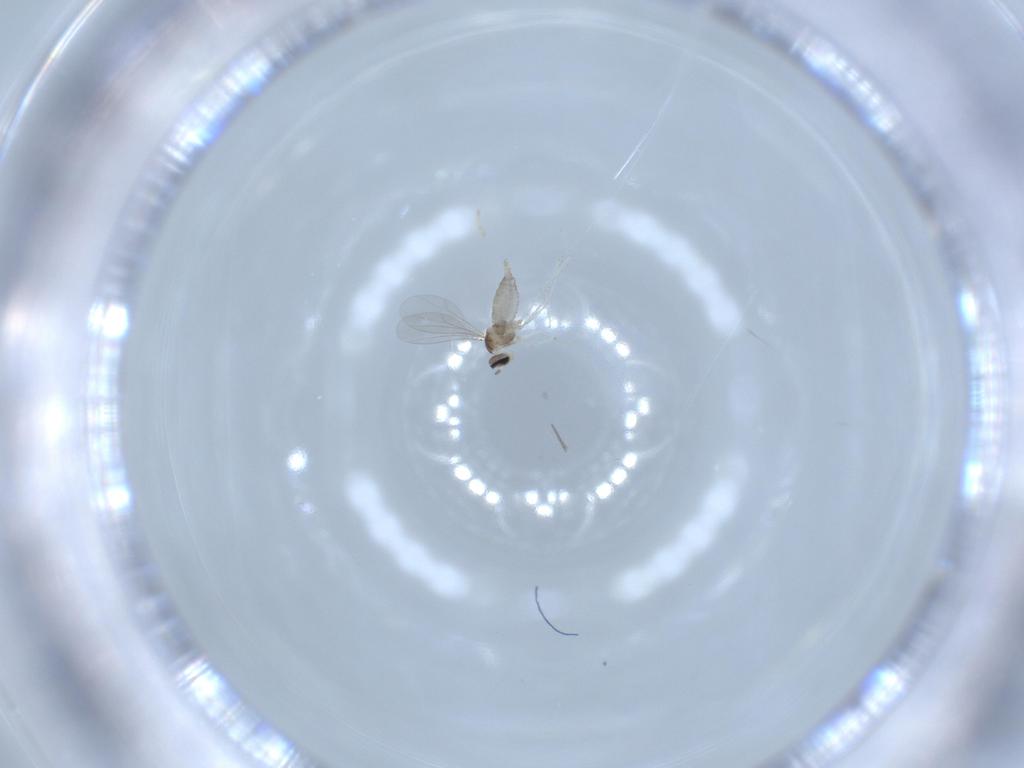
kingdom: Animalia
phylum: Arthropoda
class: Insecta
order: Diptera
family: Cecidomyiidae
